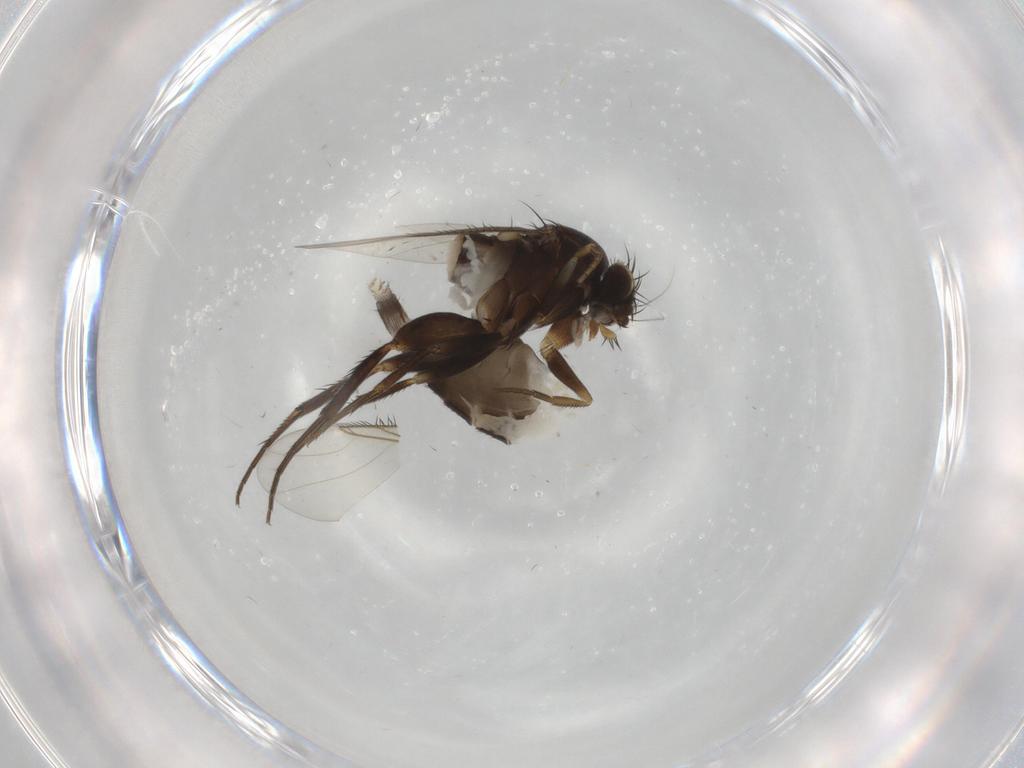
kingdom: Animalia
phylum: Arthropoda
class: Insecta
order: Diptera
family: Phoridae
